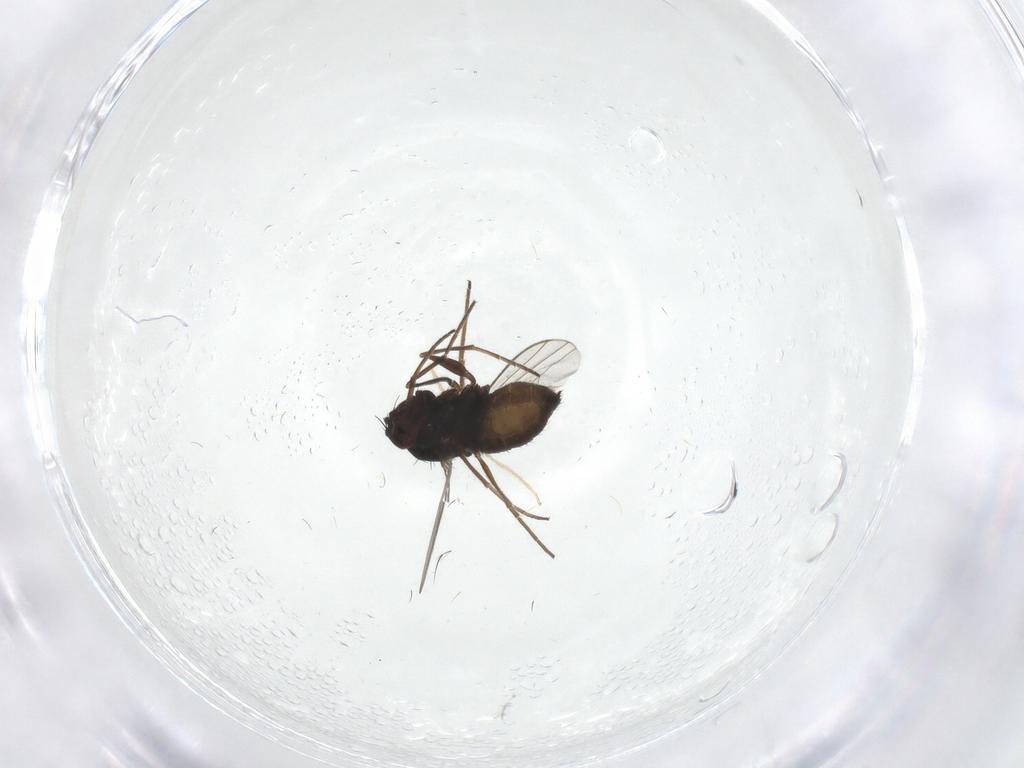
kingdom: Animalia
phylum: Arthropoda
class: Insecta
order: Diptera
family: Dolichopodidae
